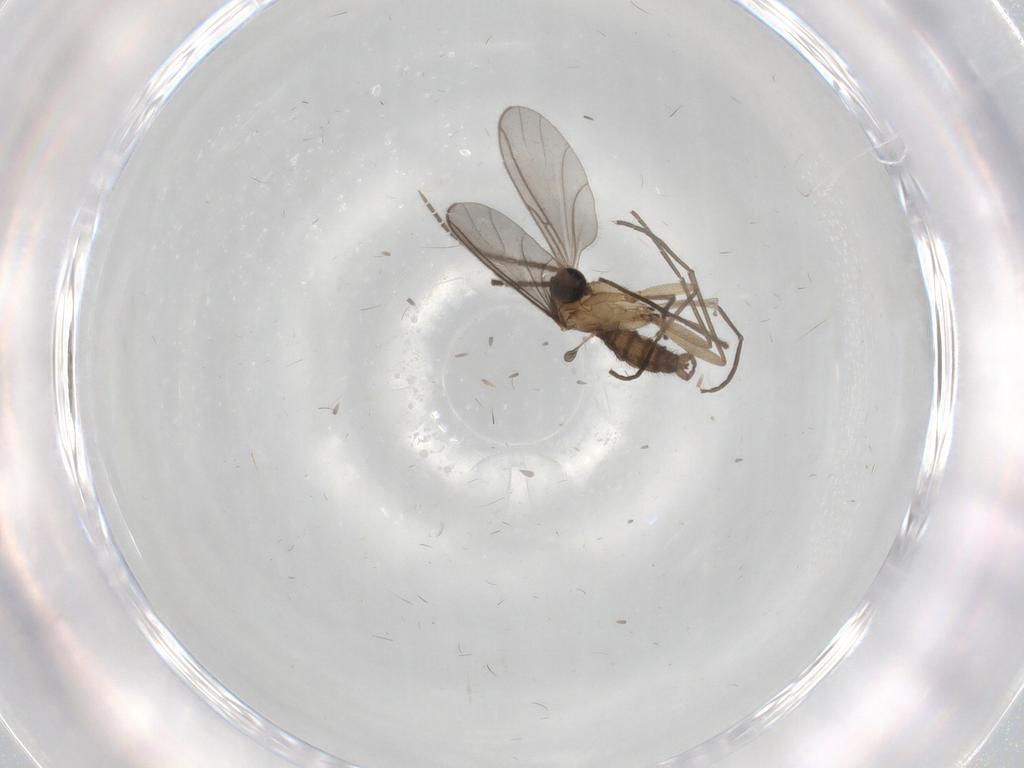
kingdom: Animalia
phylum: Arthropoda
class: Insecta
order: Diptera
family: Sciaridae
